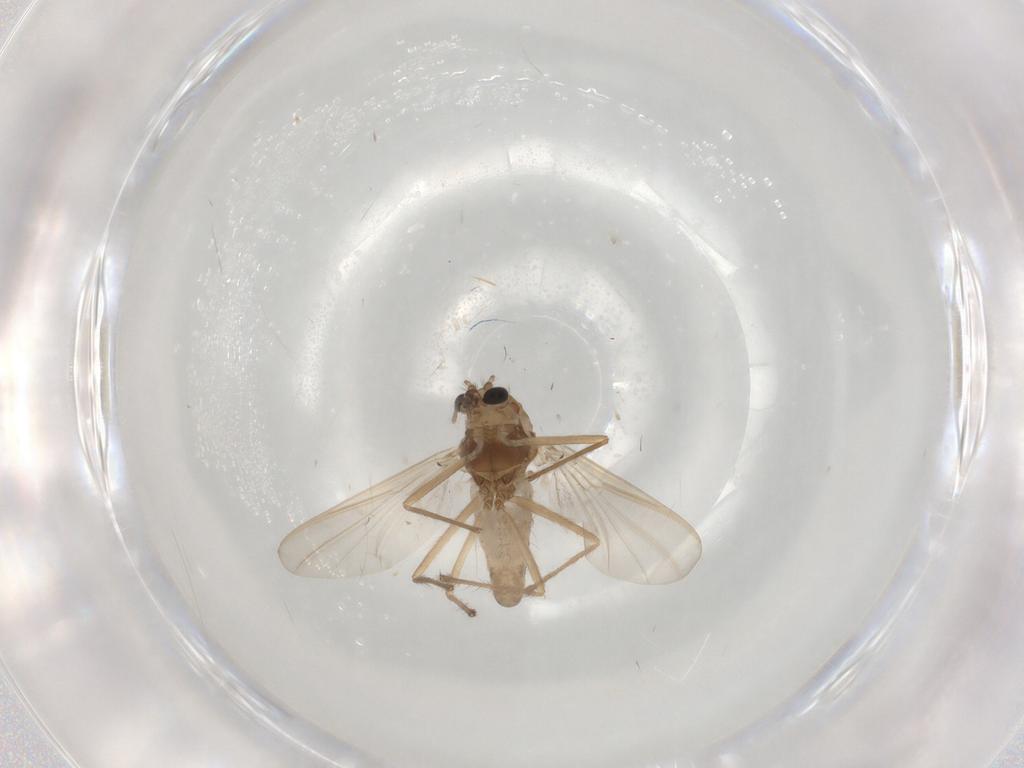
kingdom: Animalia
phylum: Arthropoda
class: Insecta
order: Diptera
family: Chironomidae
